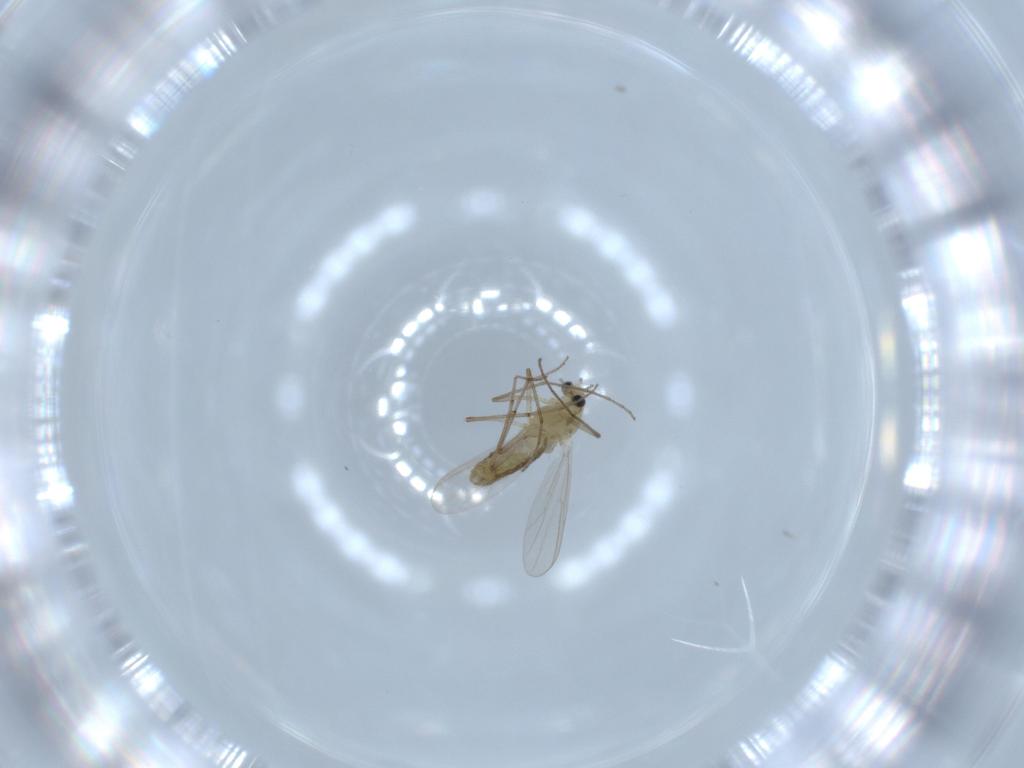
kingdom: Animalia
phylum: Arthropoda
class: Insecta
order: Diptera
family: Chironomidae
